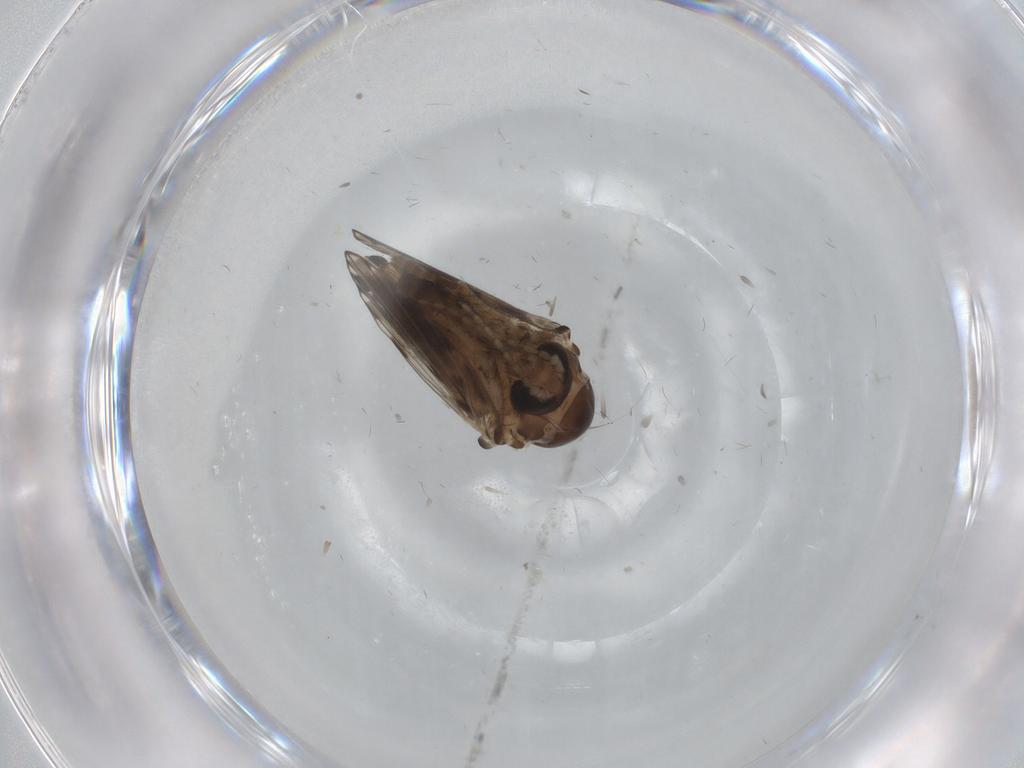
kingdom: Animalia
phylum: Arthropoda
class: Insecta
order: Diptera
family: Psychodidae
